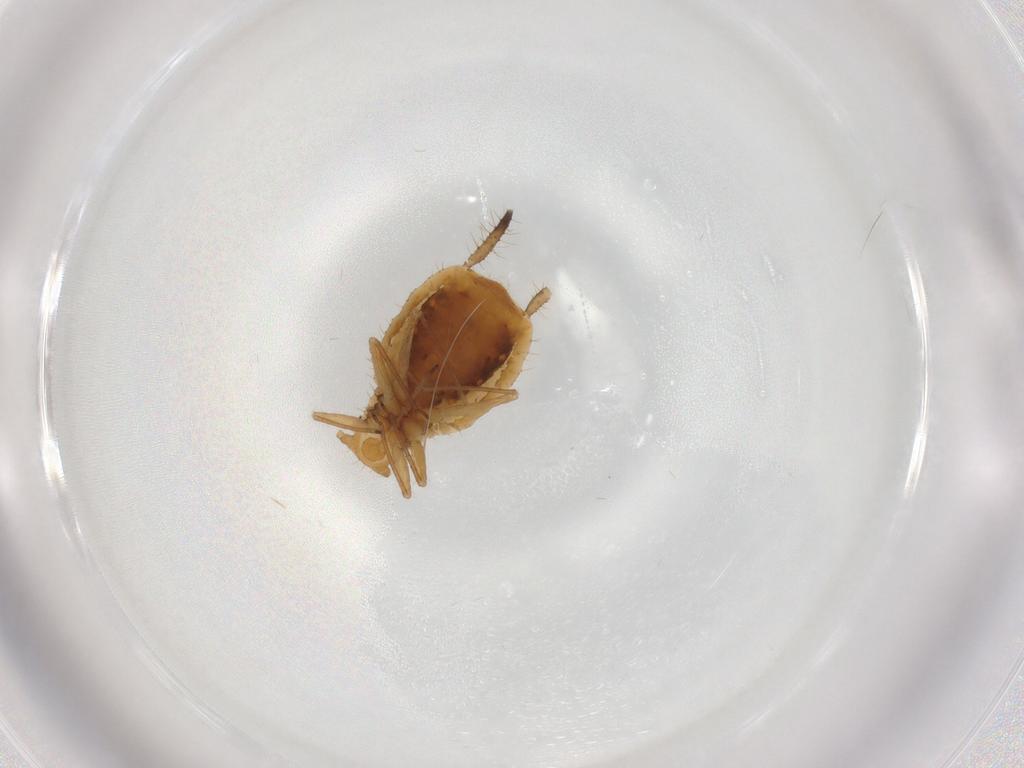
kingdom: Animalia
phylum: Arthropoda
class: Insecta
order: Hemiptera
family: Aphididae
